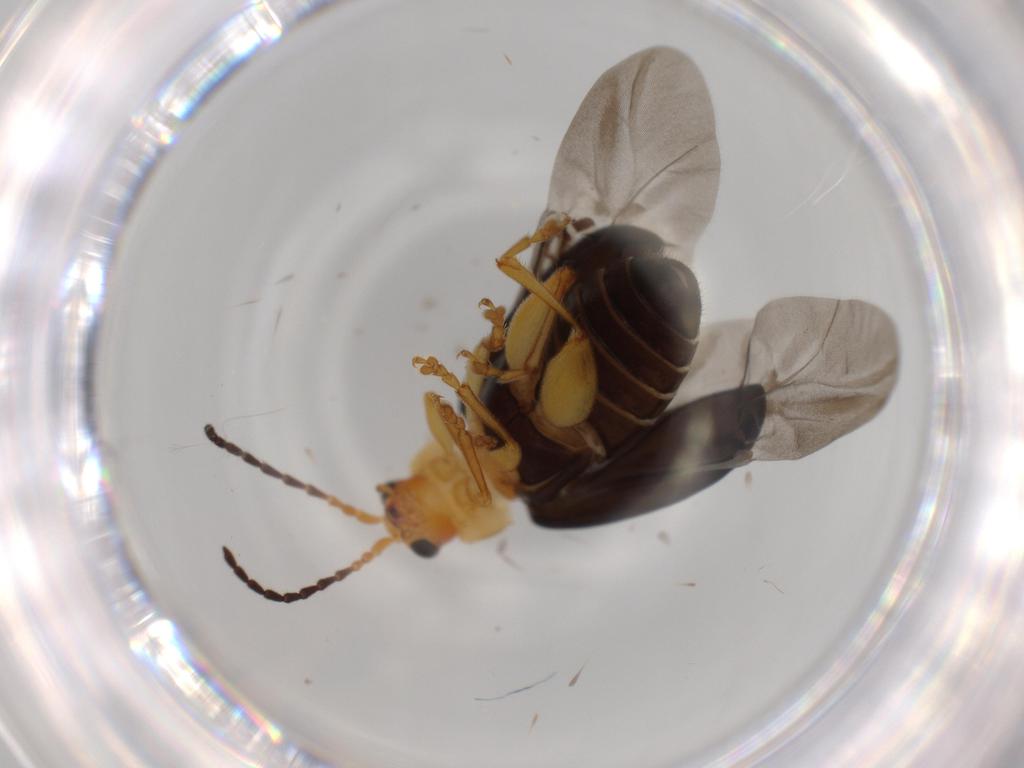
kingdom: Animalia
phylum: Arthropoda
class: Insecta
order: Coleoptera
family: Chrysomelidae
